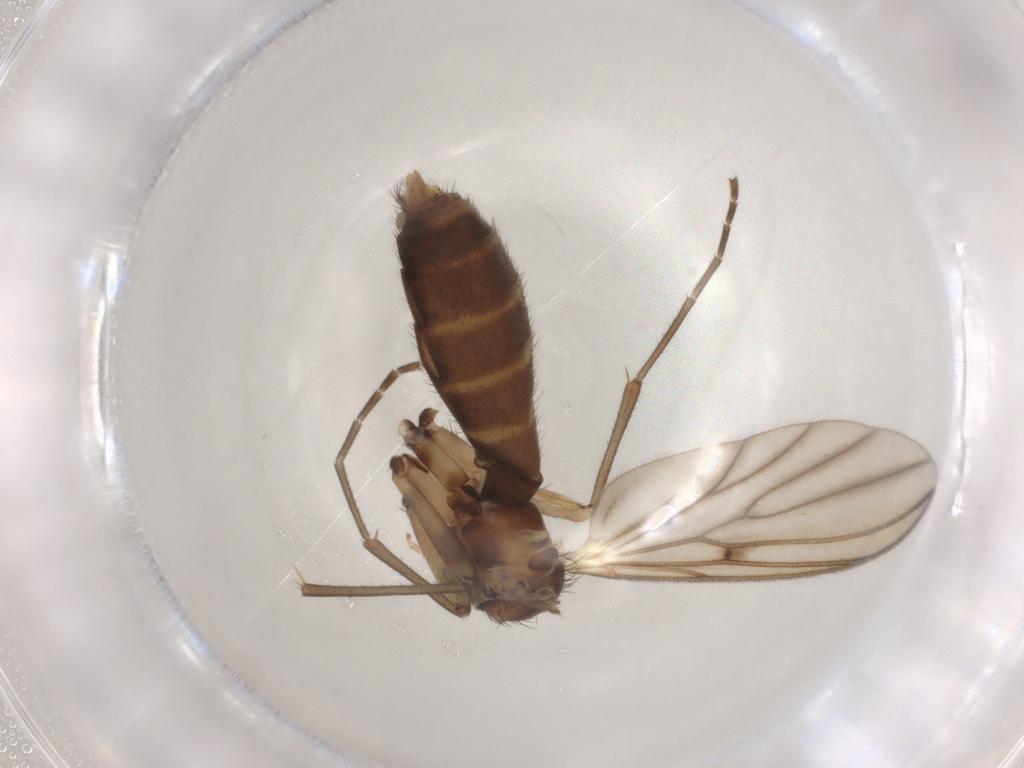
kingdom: Animalia
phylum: Arthropoda
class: Insecta
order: Diptera
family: Mycetophilidae
